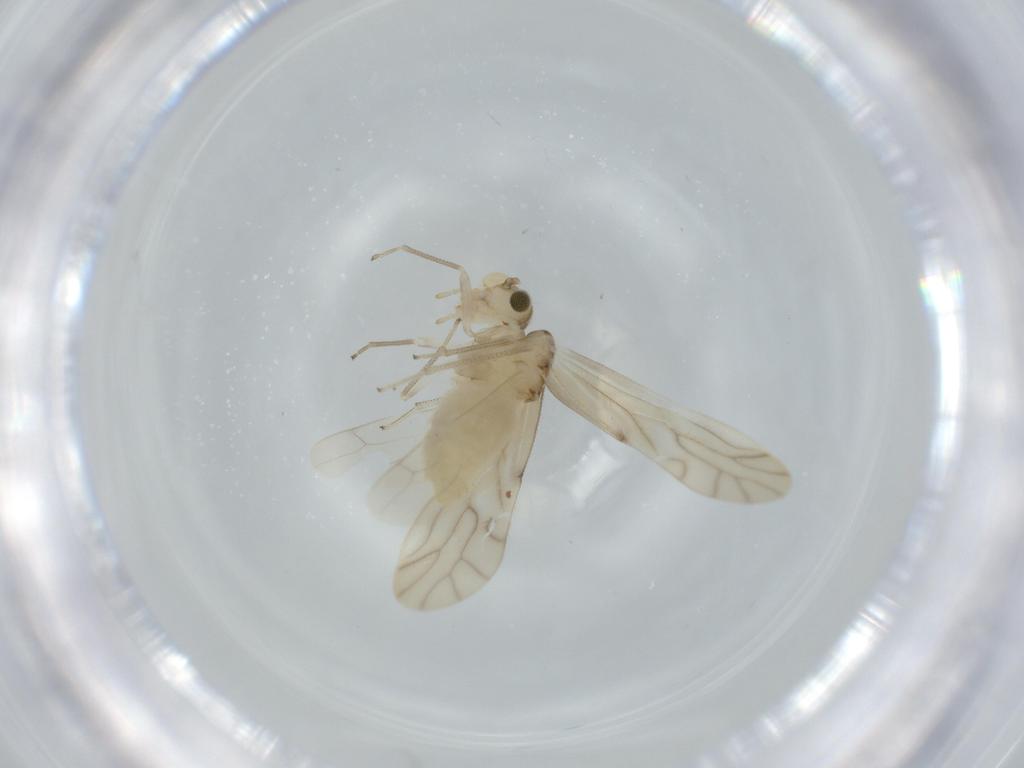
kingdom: Animalia
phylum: Arthropoda
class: Insecta
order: Psocodea
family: Caeciliusidae
